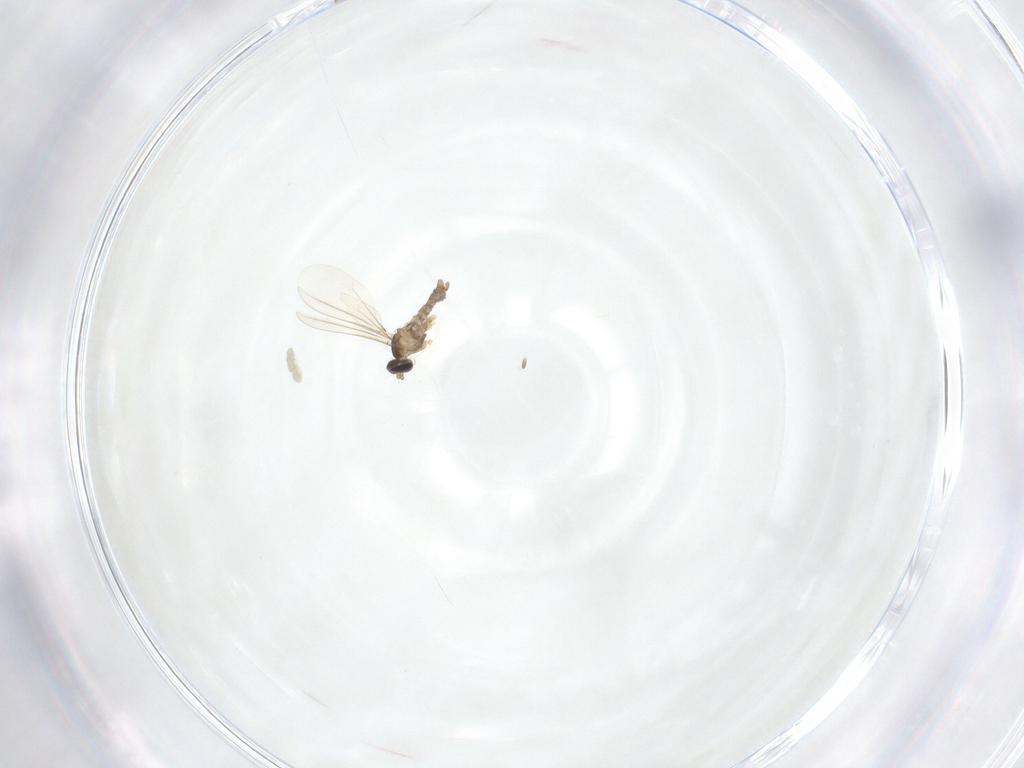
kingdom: Animalia
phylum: Arthropoda
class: Insecta
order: Diptera
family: Cecidomyiidae
